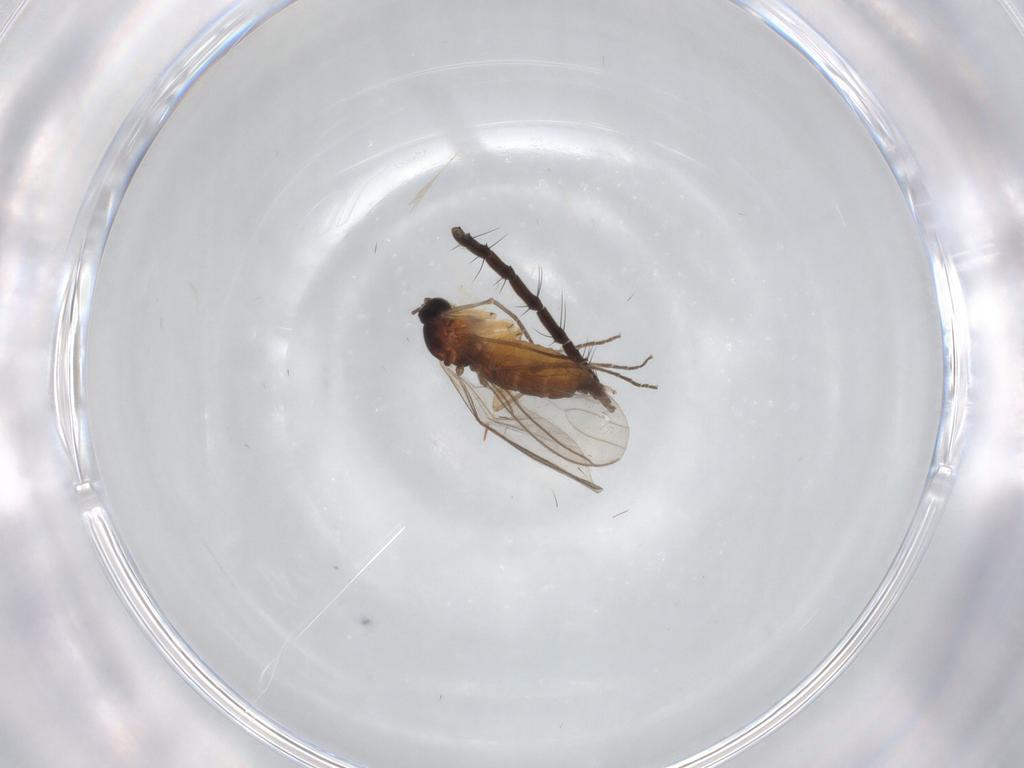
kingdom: Animalia
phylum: Arthropoda
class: Insecta
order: Diptera
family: Sciaridae
